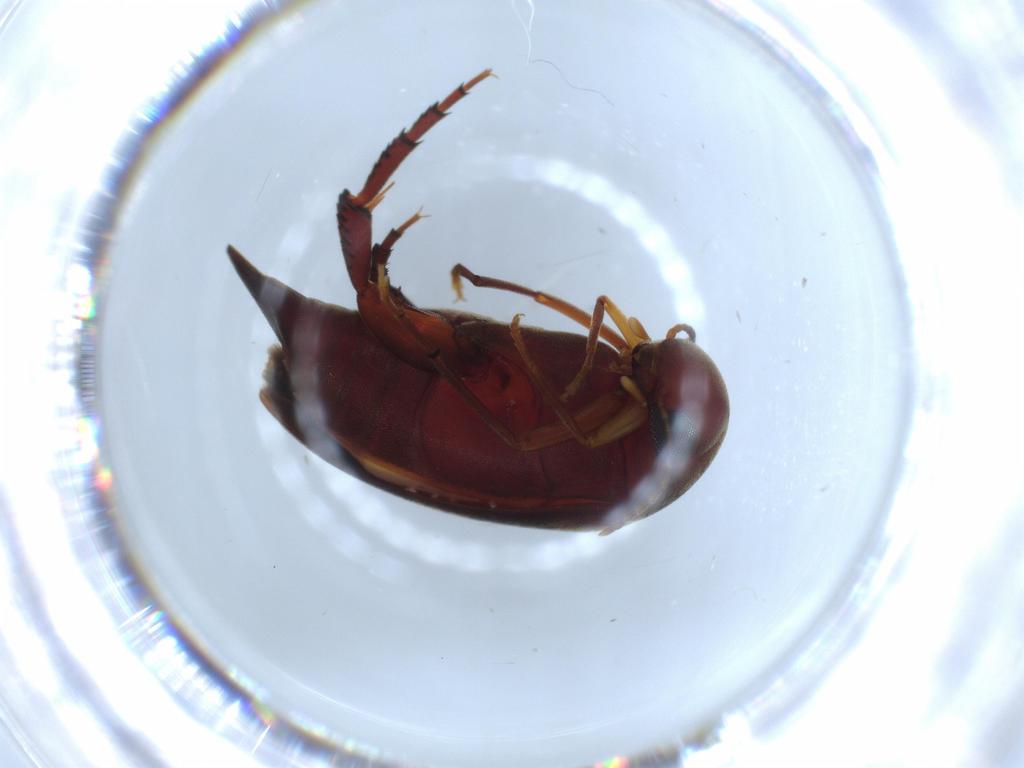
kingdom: Animalia
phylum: Arthropoda
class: Insecta
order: Coleoptera
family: Mordellidae
